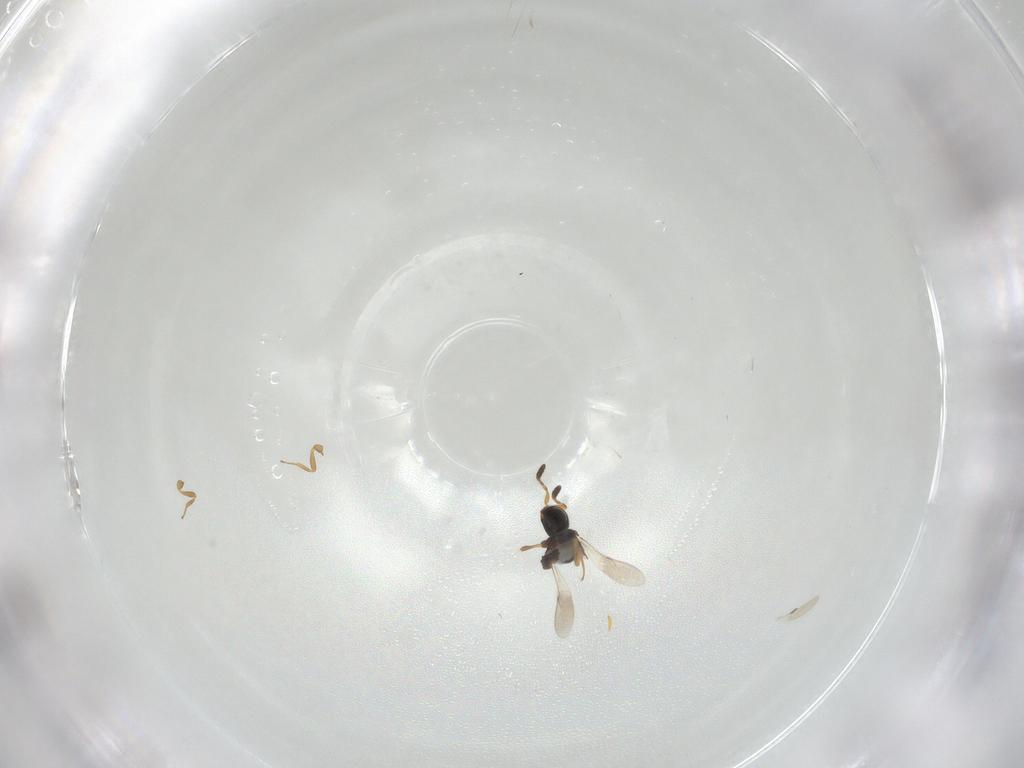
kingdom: Animalia
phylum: Arthropoda
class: Insecta
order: Hymenoptera
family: Scelionidae
